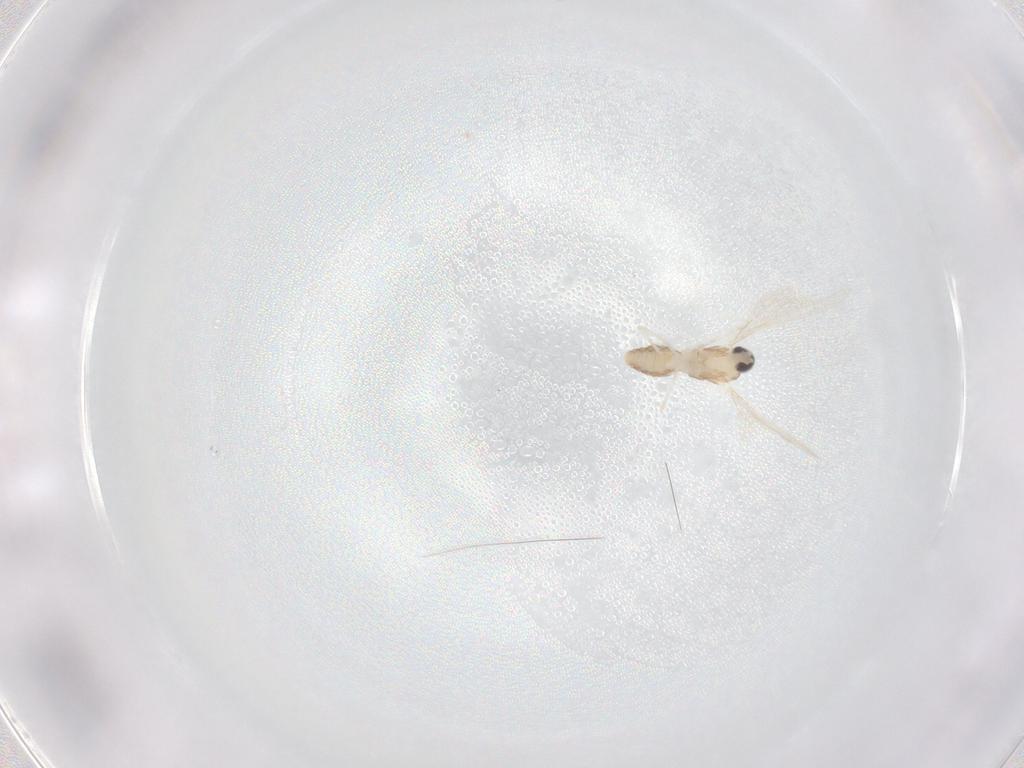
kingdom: Animalia
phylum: Arthropoda
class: Insecta
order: Diptera
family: Cecidomyiidae
